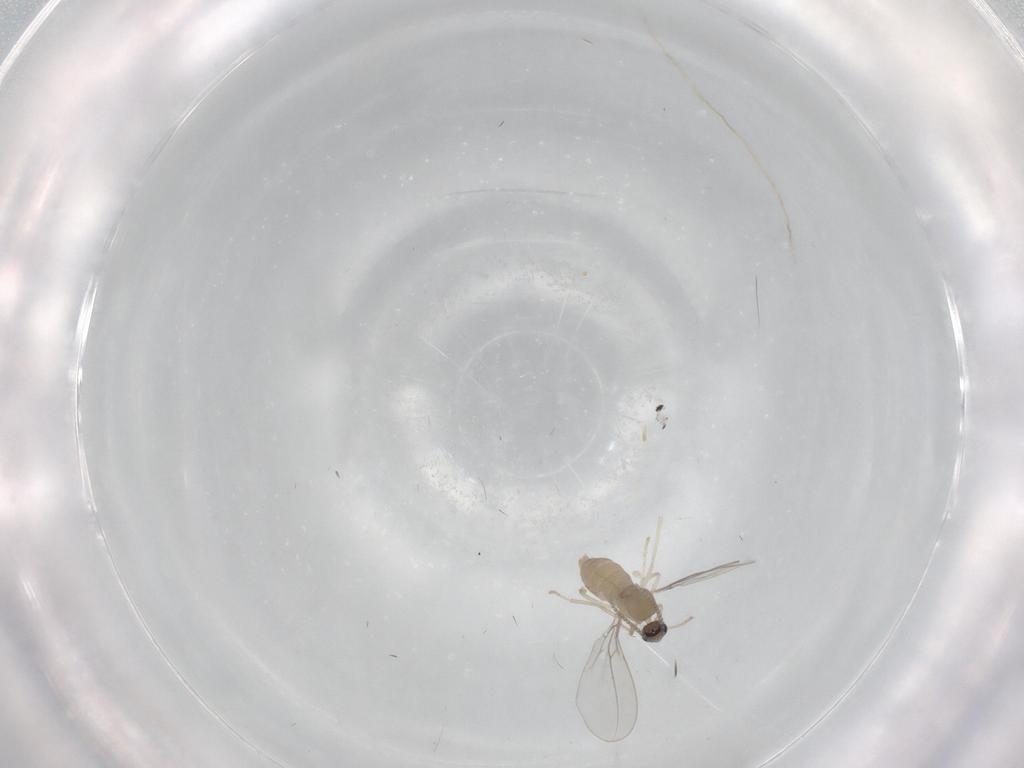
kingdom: Animalia
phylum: Arthropoda
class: Insecta
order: Diptera
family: Cecidomyiidae
